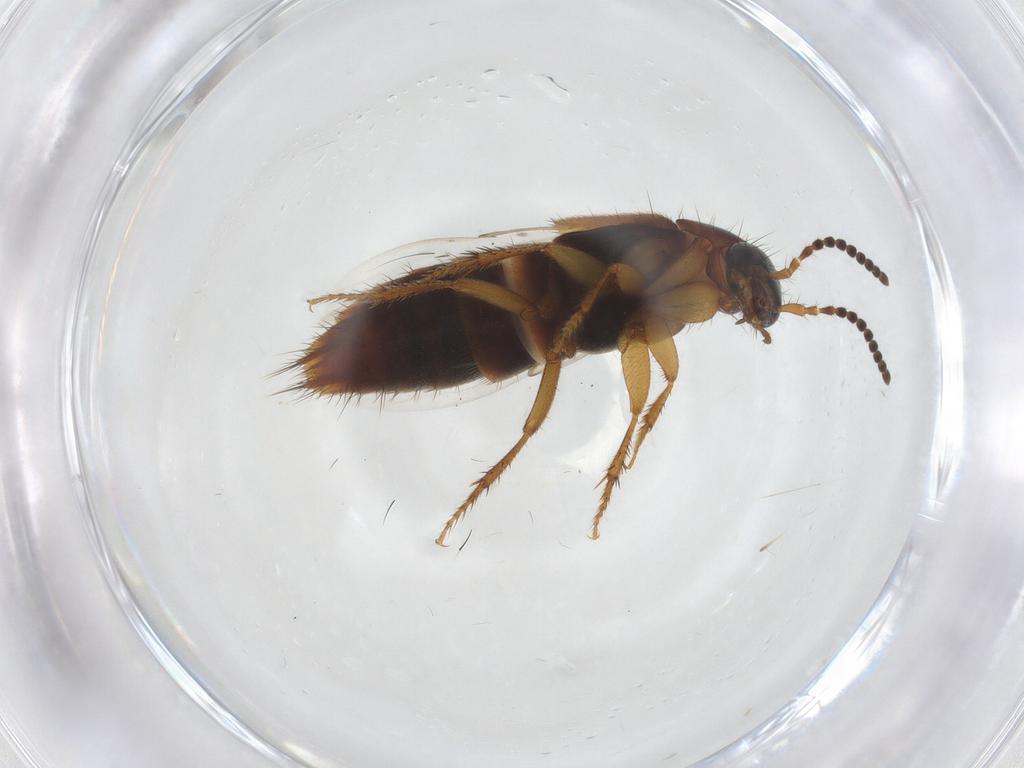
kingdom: Animalia
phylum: Arthropoda
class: Insecta
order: Coleoptera
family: Staphylinidae
